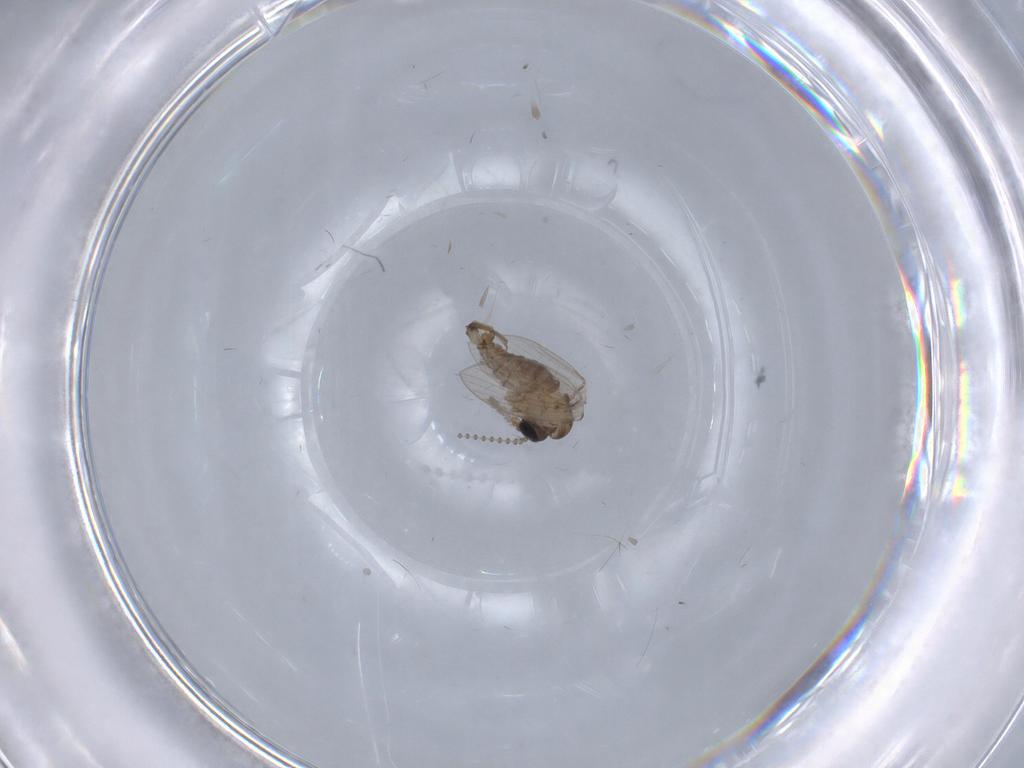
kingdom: Animalia
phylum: Arthropoda
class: Insecta
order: Diptera
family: Psychodidae
